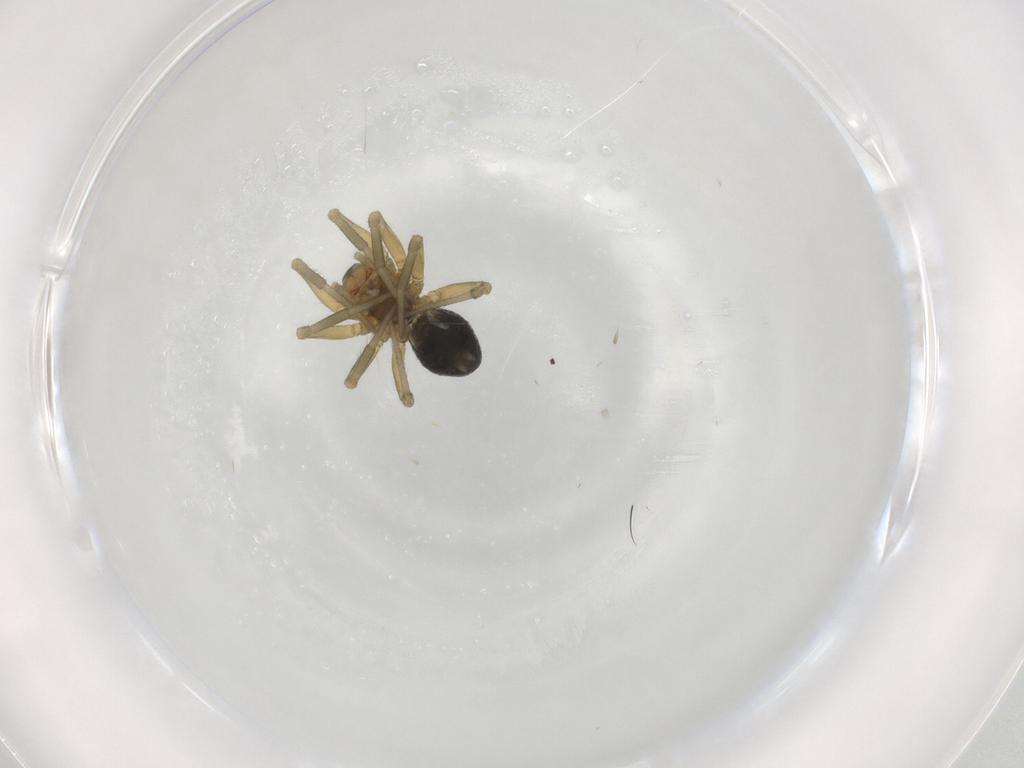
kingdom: Animalia
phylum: Arthropoda
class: Arachnida
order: Araneae
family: Linyphiidae
